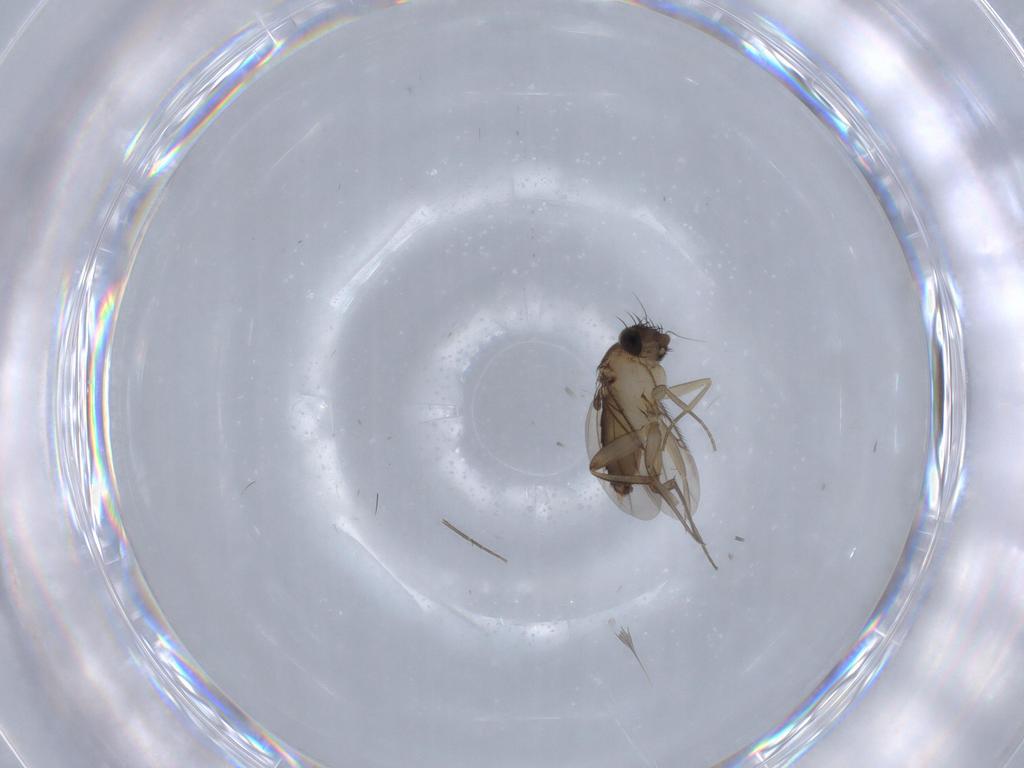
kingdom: Animalia
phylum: Arthropoda
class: Insecta
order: Diptera
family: Phoridae
